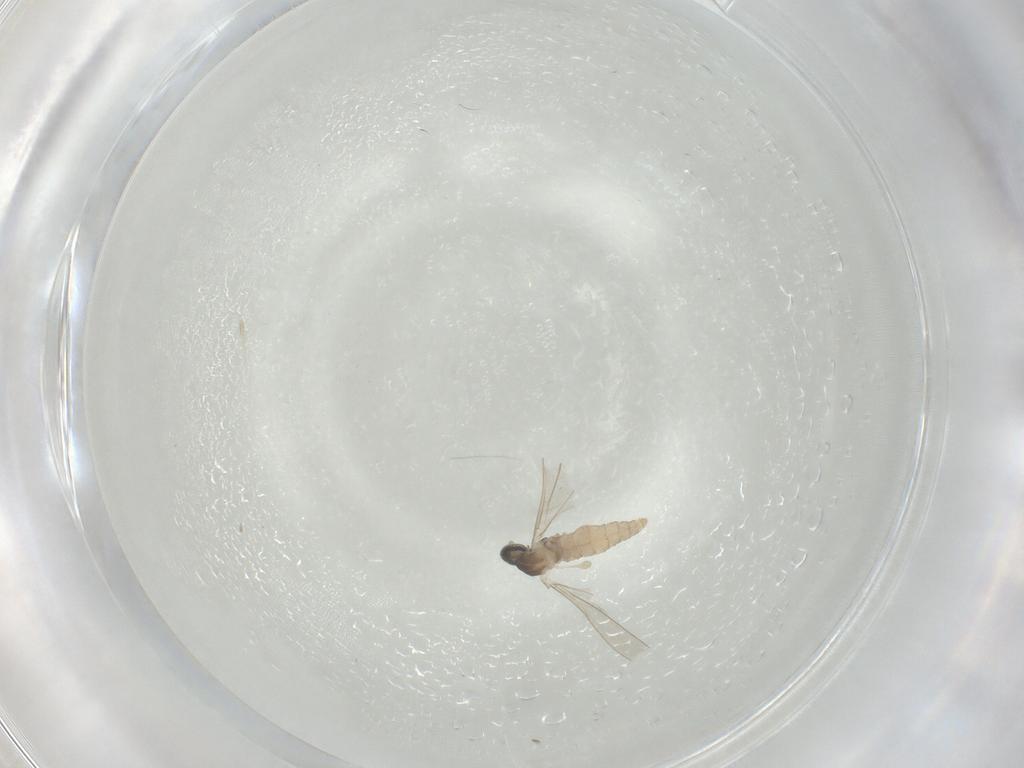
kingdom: Animalia
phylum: Arthropoda
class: Insecta
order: Diptera
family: Cecidomyiidae
